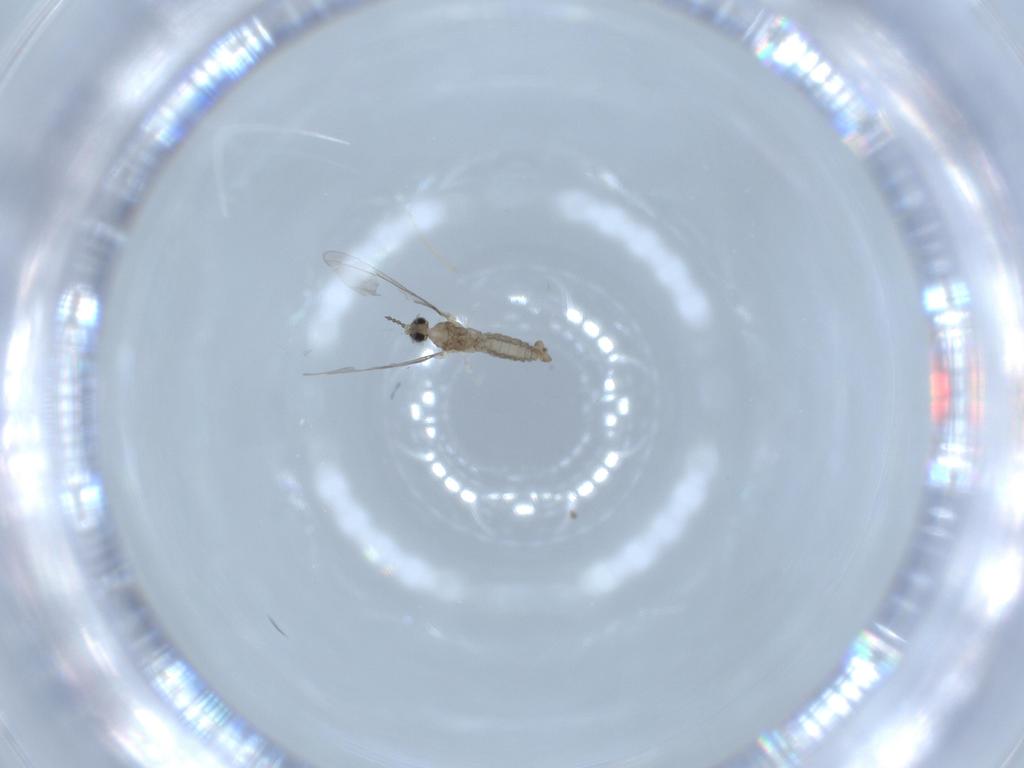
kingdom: Animalia
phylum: Arthropoda
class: Insecta
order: Diptera
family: Cecidomyiidae
